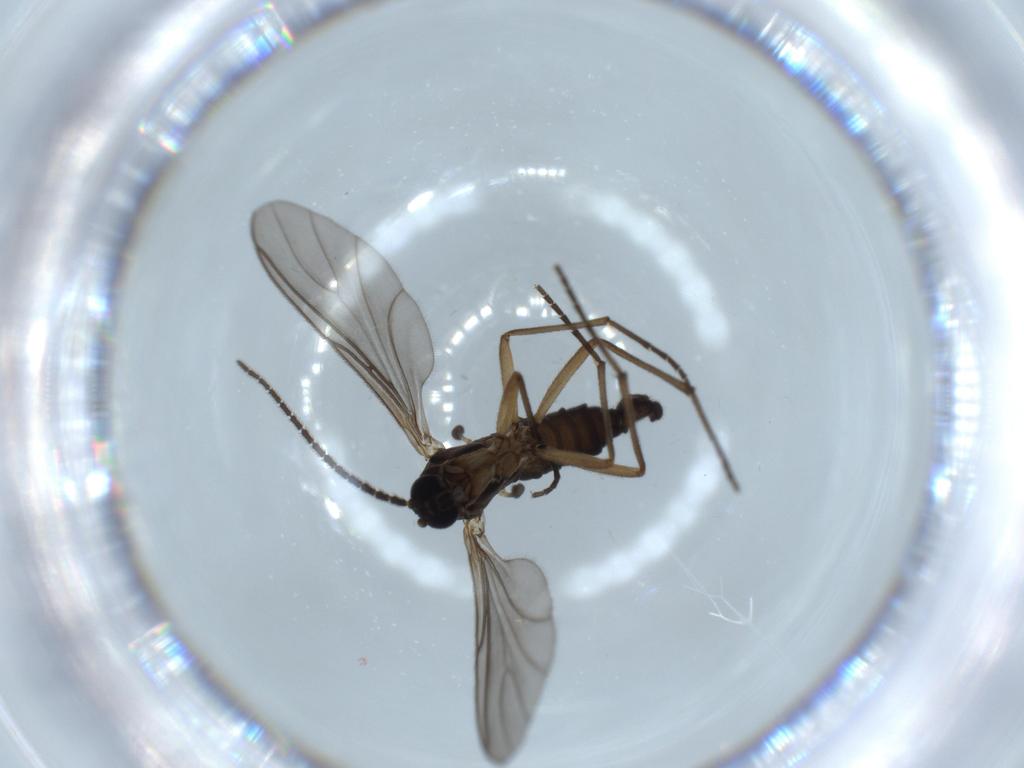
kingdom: Animalia
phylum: Arthropoda
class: Insecta
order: Diptera
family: Sciaridae
